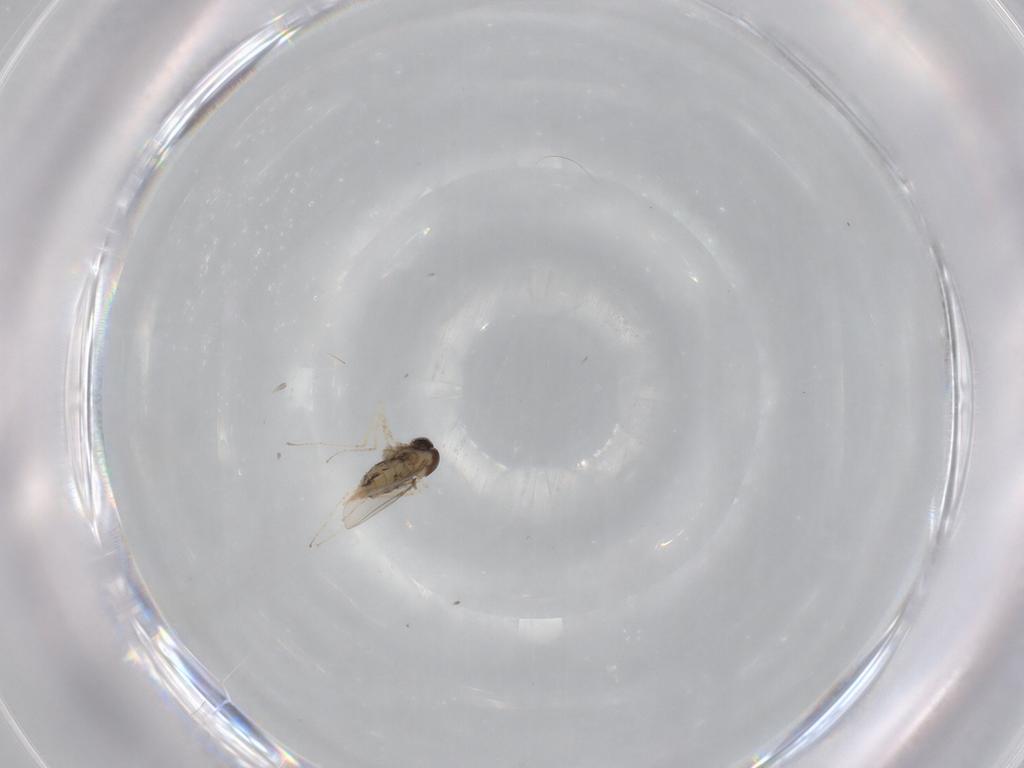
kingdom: Animalia
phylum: Arthropoda
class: Insecta
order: Diptera
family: Cecidomyiidae
